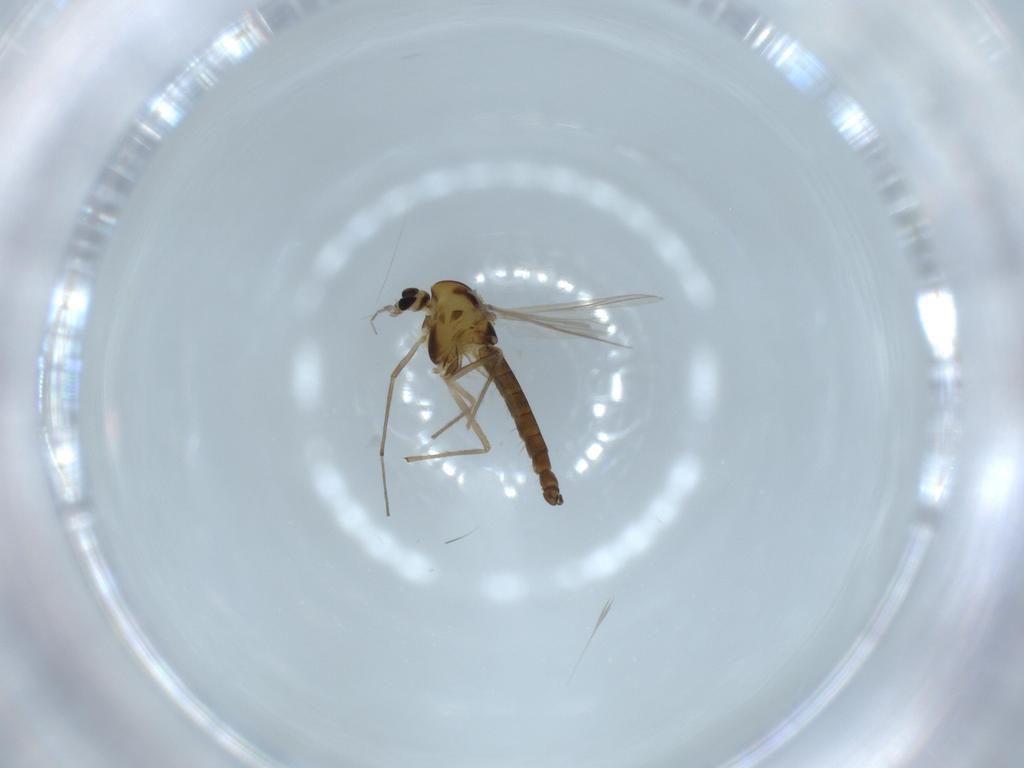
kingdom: Animalia
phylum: Arthropoda
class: Insecta
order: Diptera
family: Chironomidae
